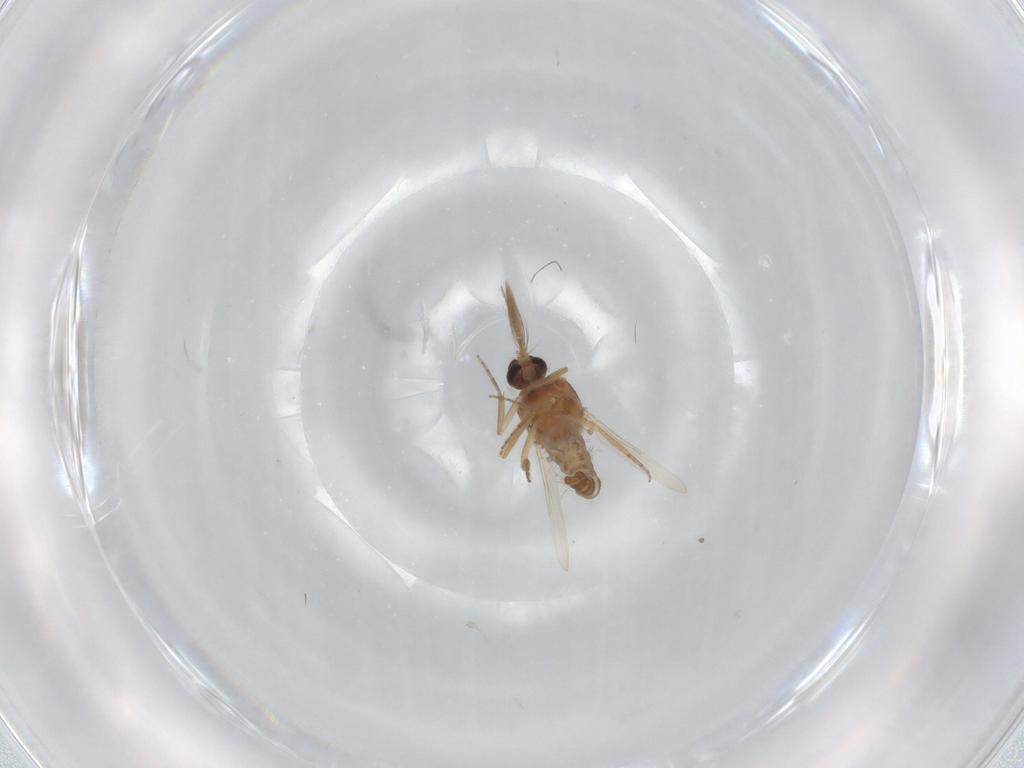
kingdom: Animalia
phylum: Arthropoda
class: Insecta
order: Diptera
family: Ceratopogonidae
